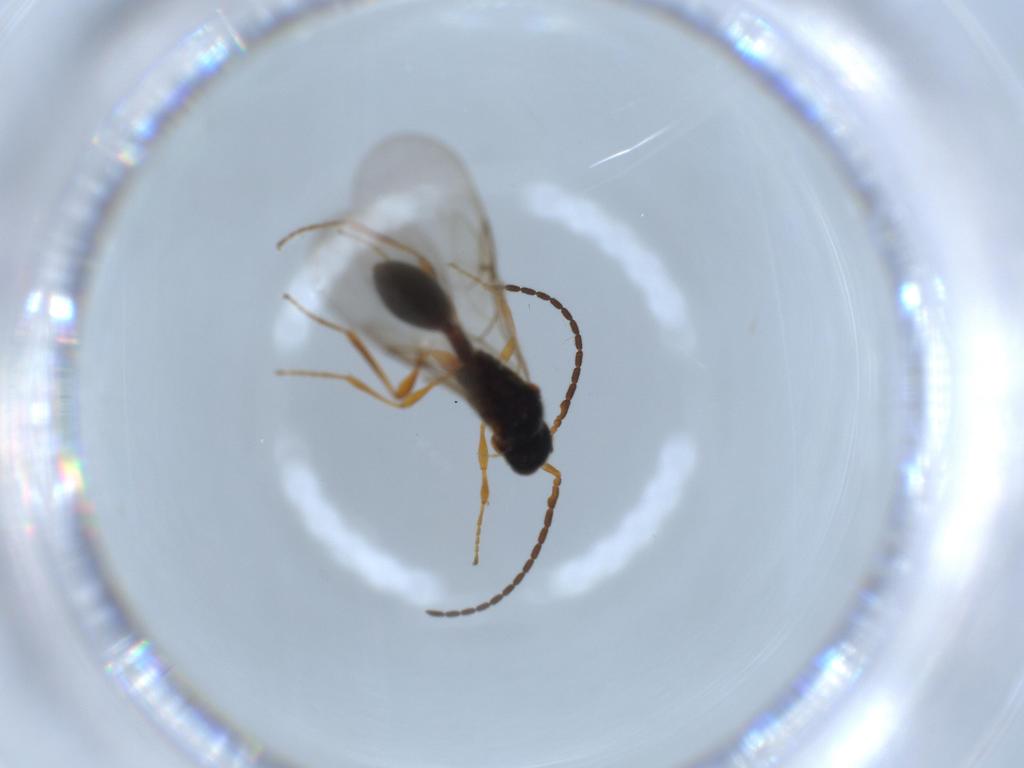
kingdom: Animalia
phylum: Arthropoda
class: Insecta
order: Hymenoptera
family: Diapriidae
